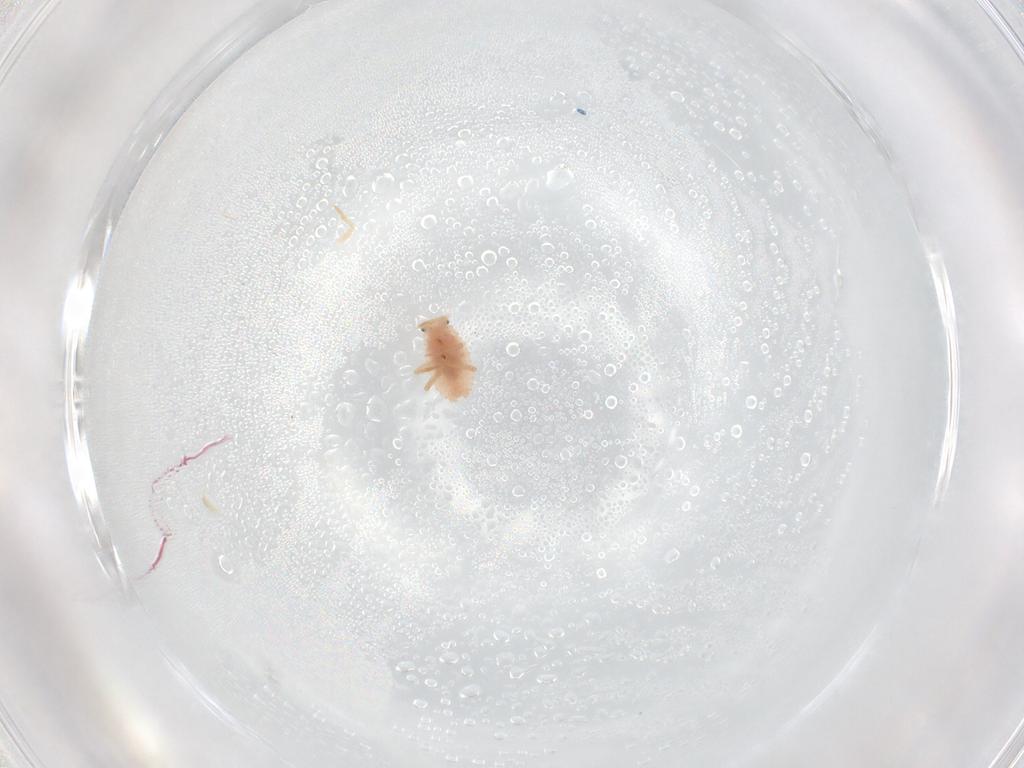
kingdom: Animalia
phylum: Arthropoda
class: Insecta
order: Hemiptera
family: Coccoidea_incertae_sedis
